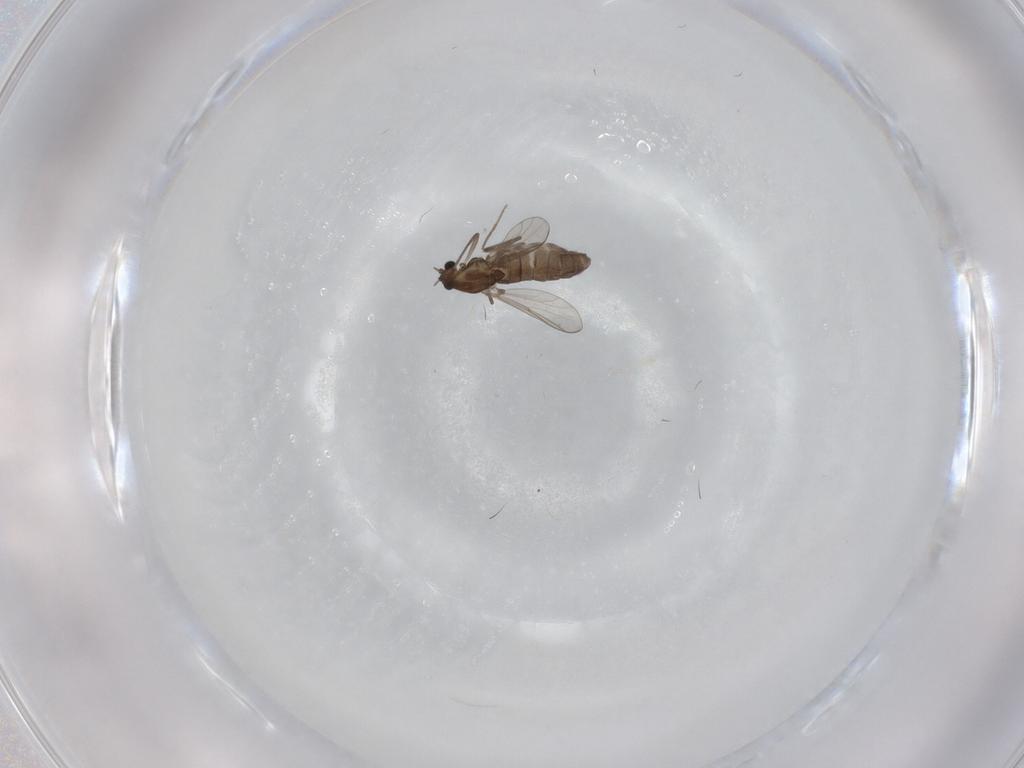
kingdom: Animalia
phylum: Arthropoda
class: Insecta
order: Diptera
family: Chironomidae
